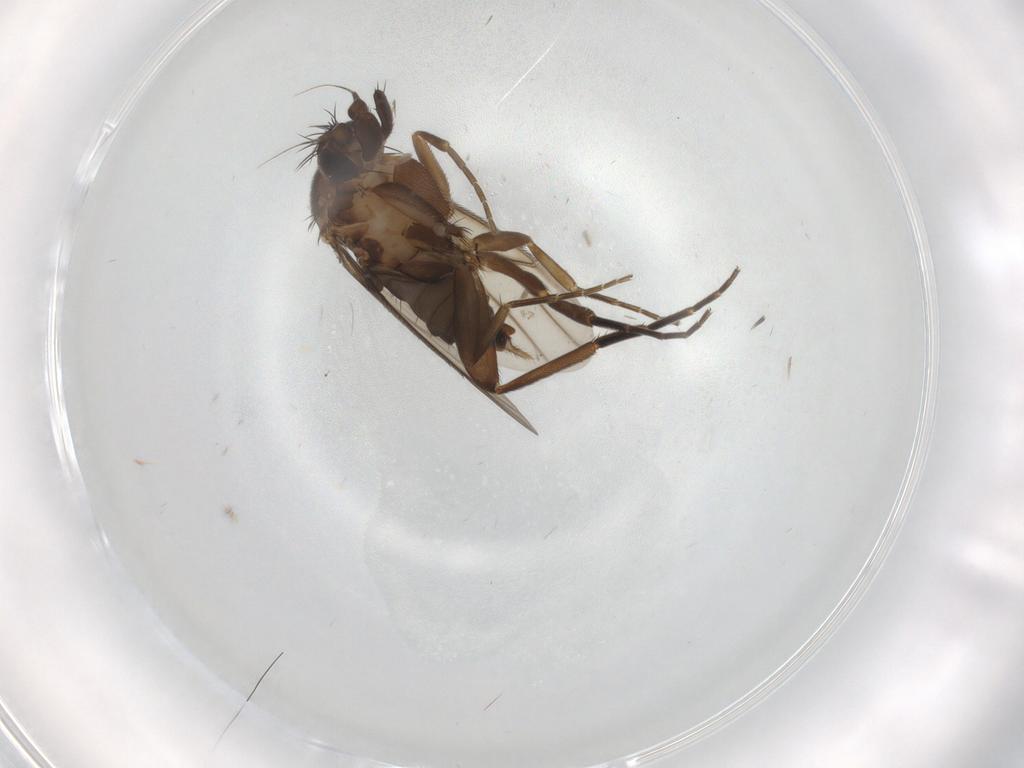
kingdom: Animalia
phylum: Arthropoda
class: Insecta
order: Diptera
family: Phoridae
